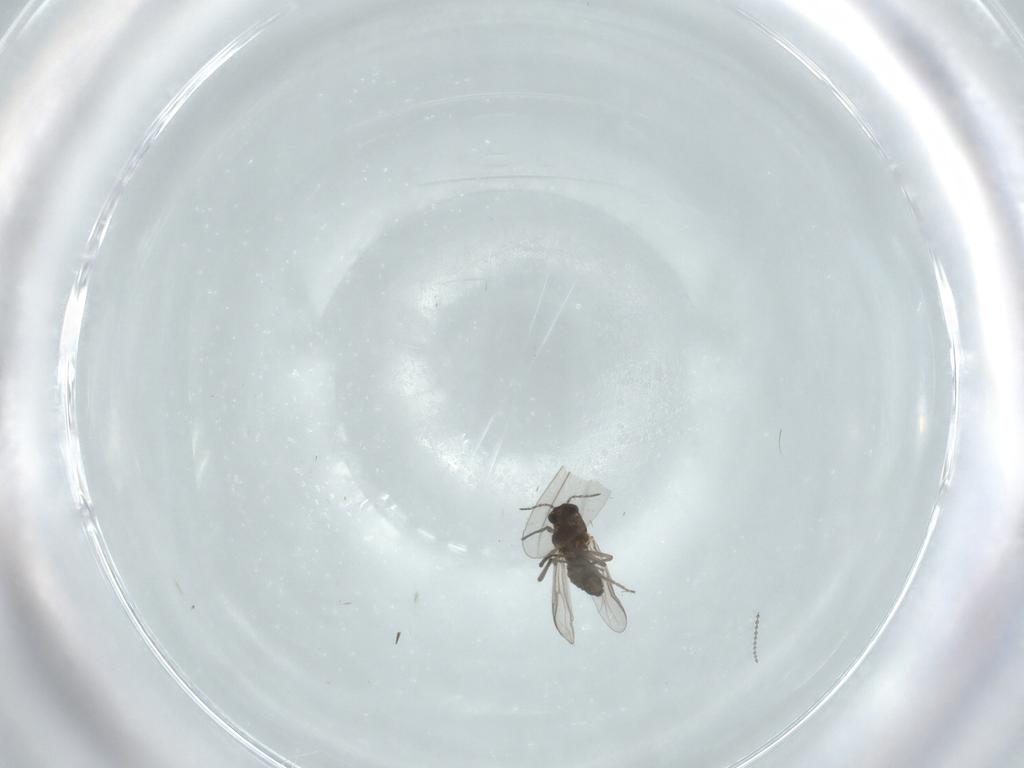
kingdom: Animalia
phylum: Arthropoda
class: Insecta
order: Diptera
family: Chironomidae
